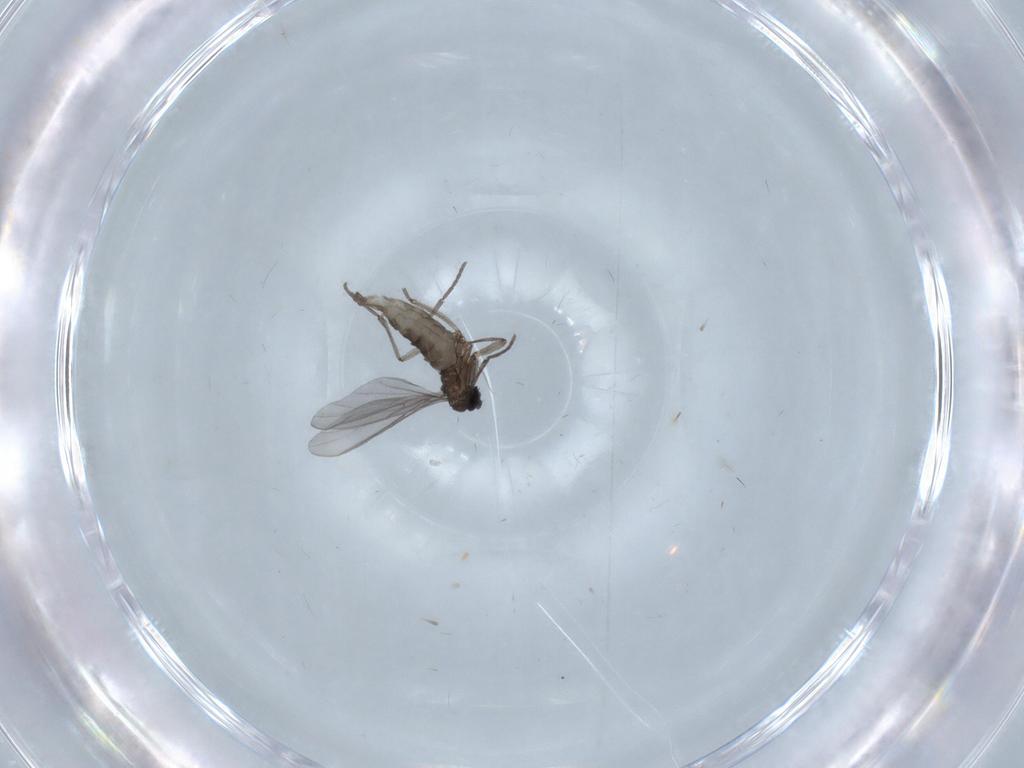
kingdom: Animalia
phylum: Arthropoda
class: Insecta
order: Diptera
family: Sciaridae
